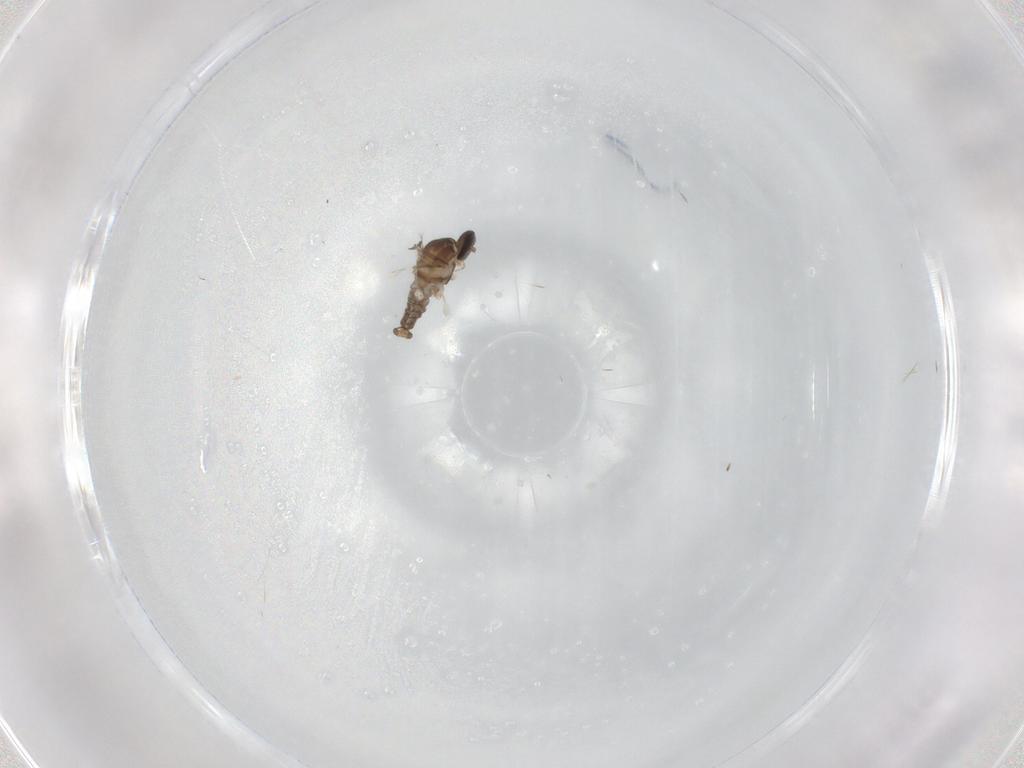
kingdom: Animalia
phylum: Arthropoda
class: Insecta
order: Diptera
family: Cecidomyiidae
